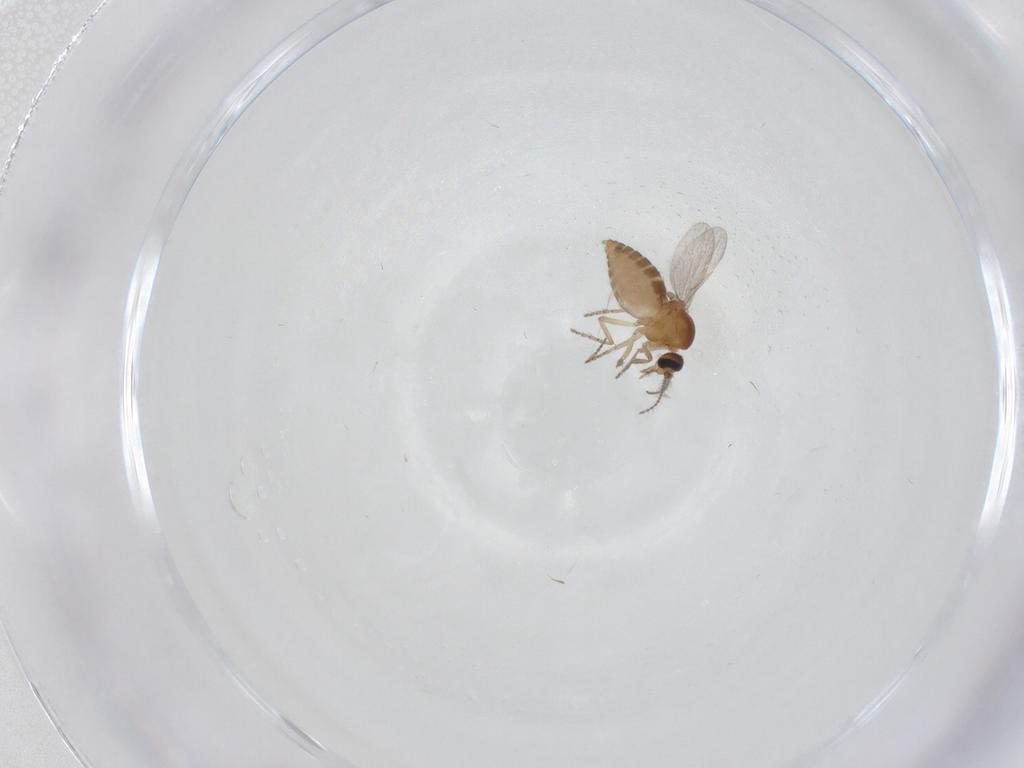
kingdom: Animalia
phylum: Arthropoda
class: Insecta
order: Diptera
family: Ceratopogonidae
